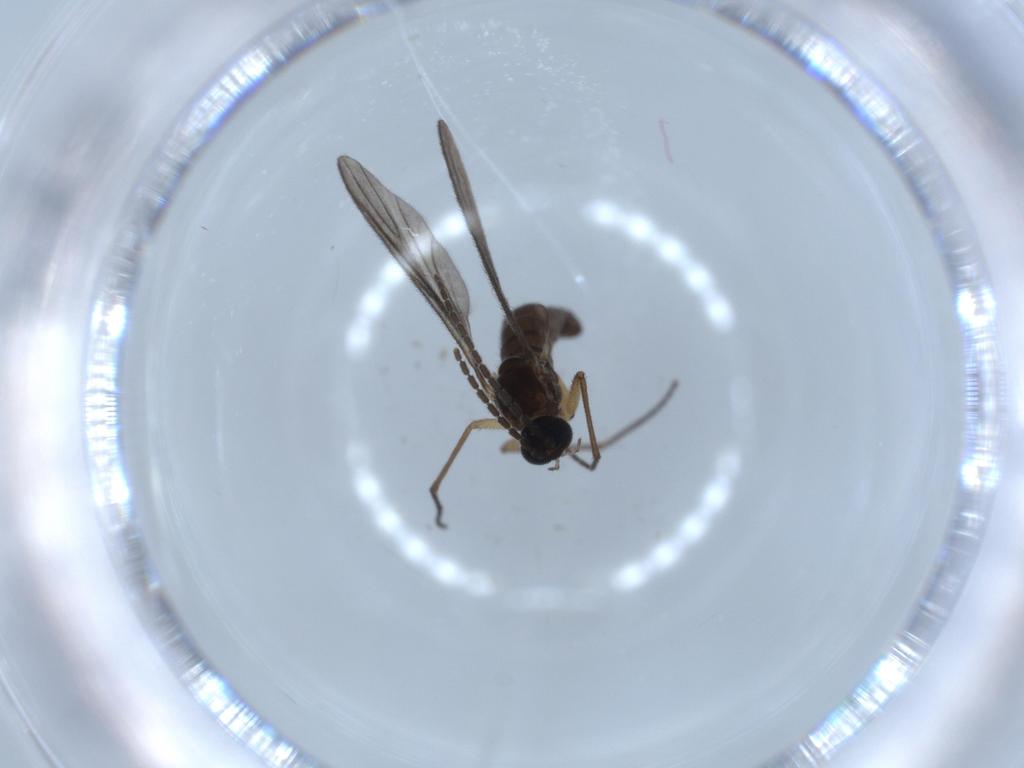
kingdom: Animalia
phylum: Arthropoda
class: Insecta
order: Diptera
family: Sciaridae
